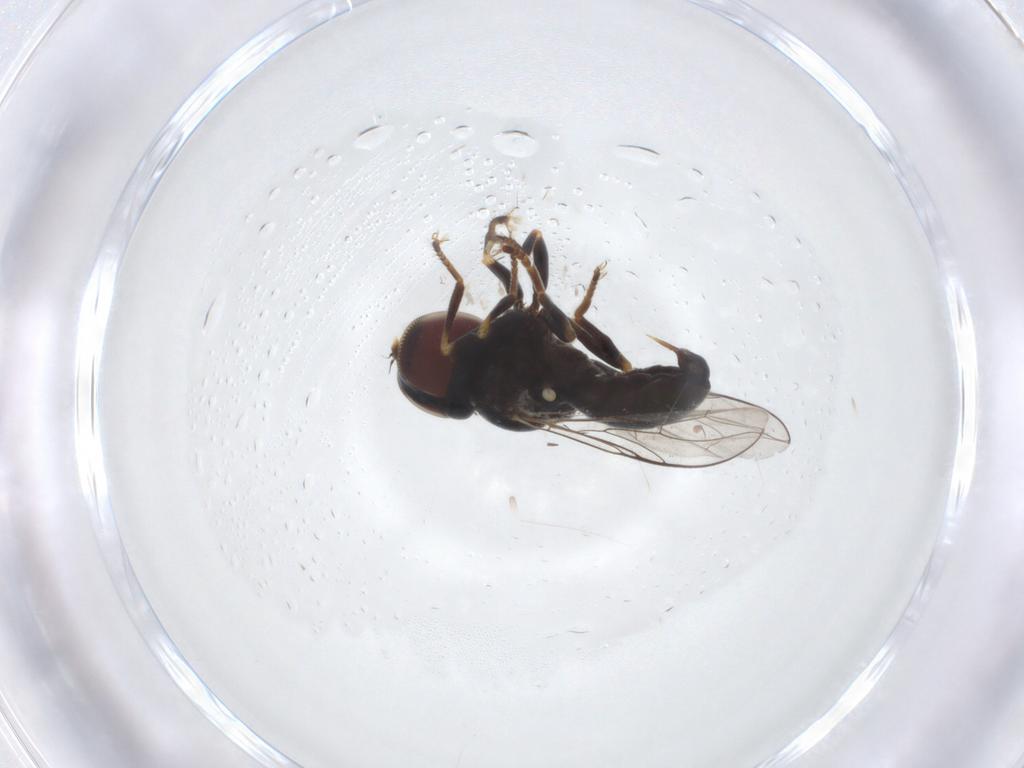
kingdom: Animalia
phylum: Arthropoda
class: Insecta
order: Diptera
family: Pipunculidae
